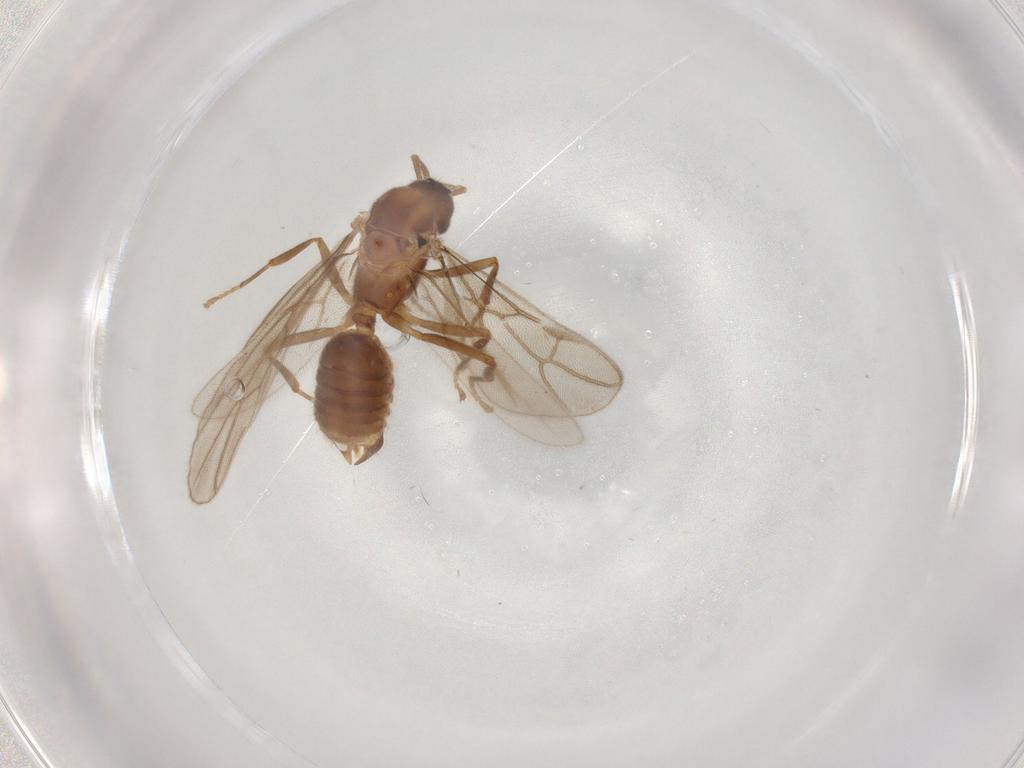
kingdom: Animalia
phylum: Arthropoda
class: Insecta
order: Hymenoptera
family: Formicidae
